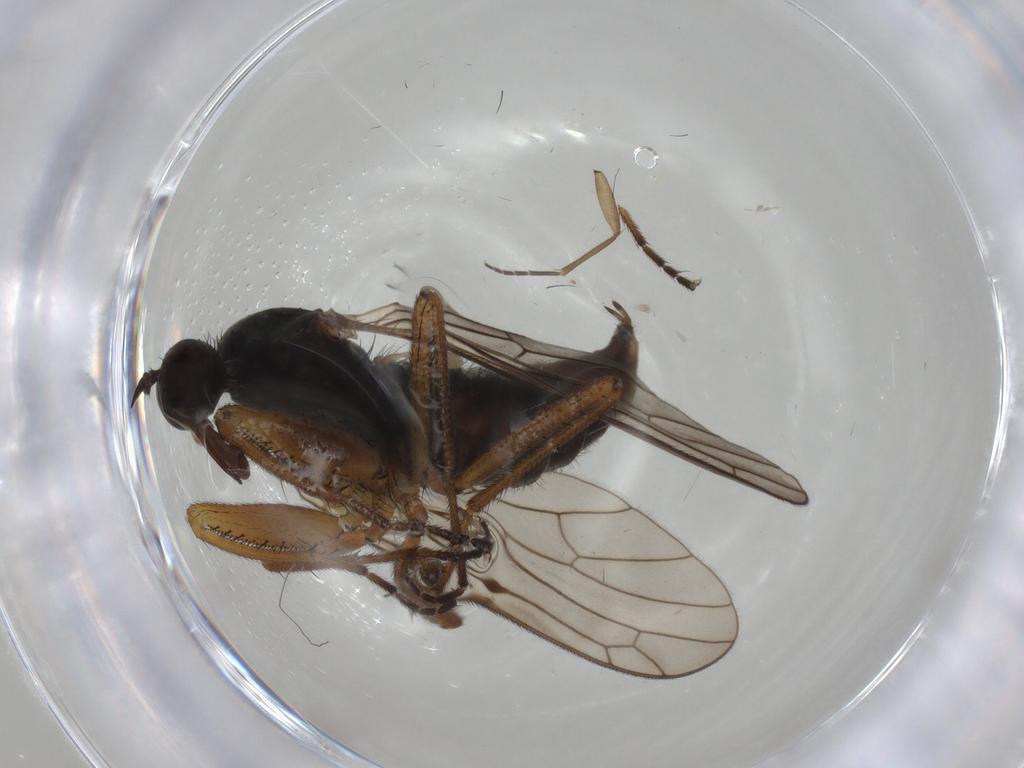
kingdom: Animalia
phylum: Arthropoda
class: Insecta
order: Diptera
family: Empididae
